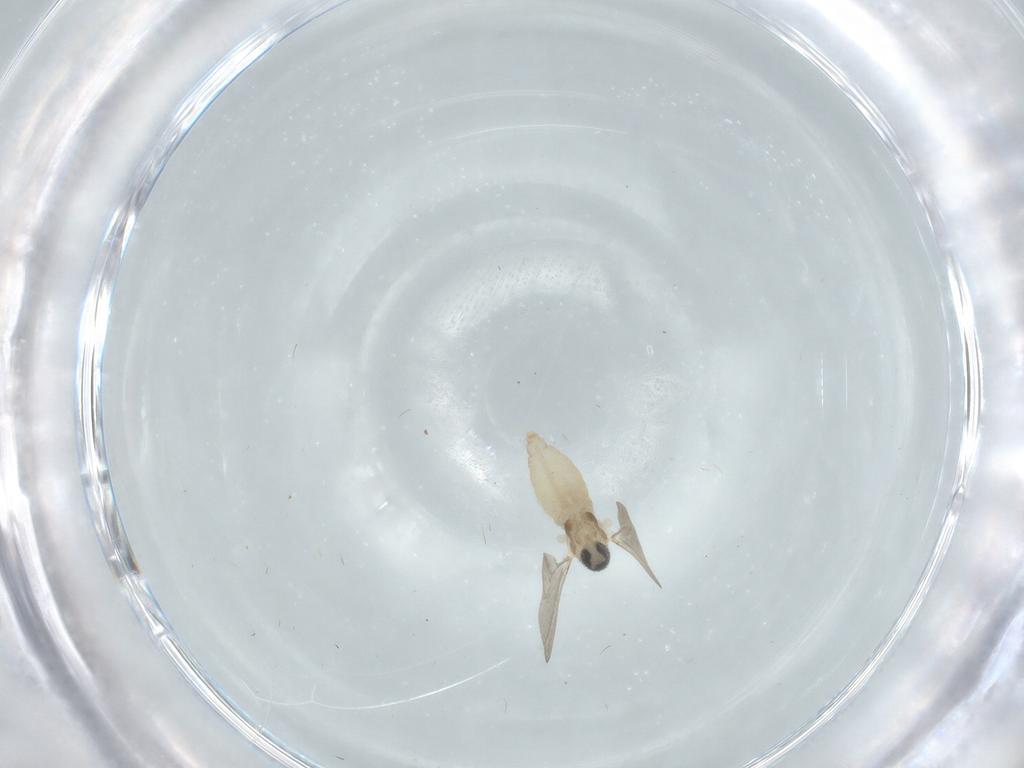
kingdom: Animalia
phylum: Arthropoda
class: Insecta
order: Diptera
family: Cecidomyiidae
